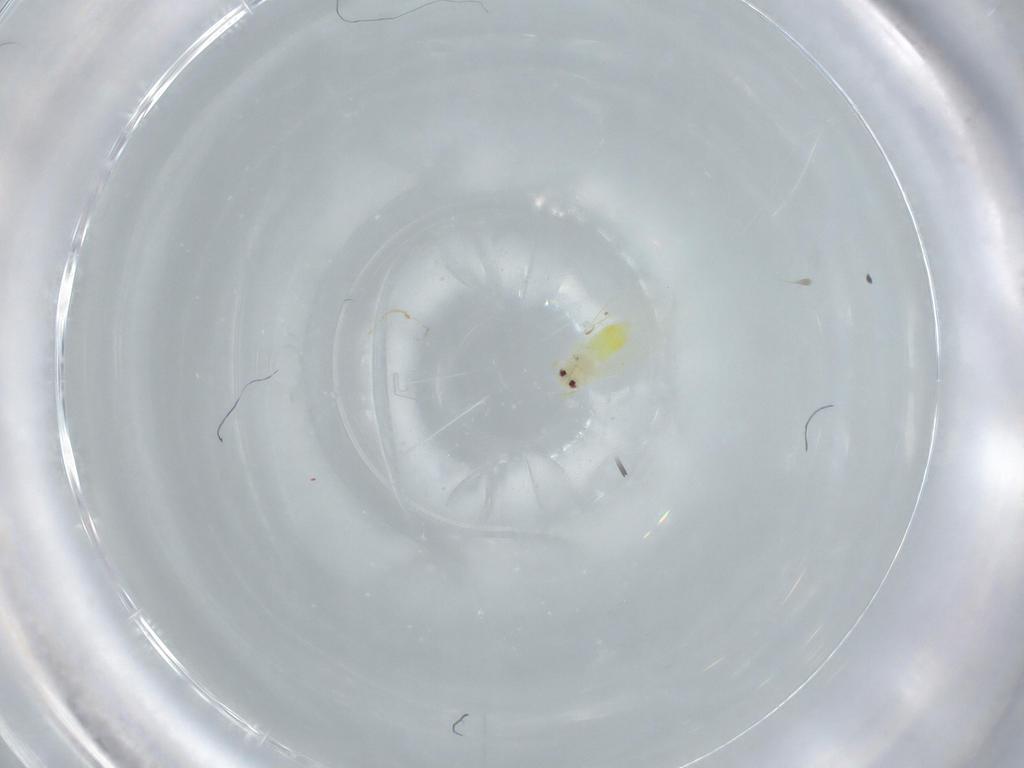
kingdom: Animalia
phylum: Arthropoda
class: Insecta
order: Hemiptera
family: Aleyrodidae
